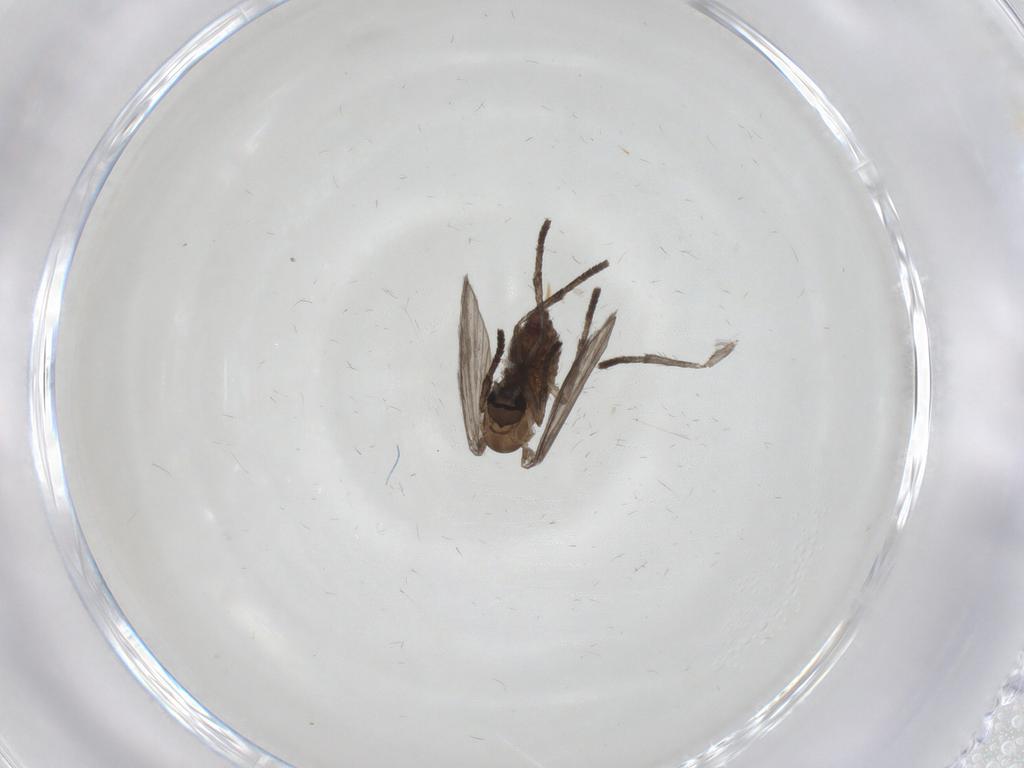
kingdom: Animalia
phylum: Arthropoda
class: Insecta
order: Diptera
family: Psychodidae
